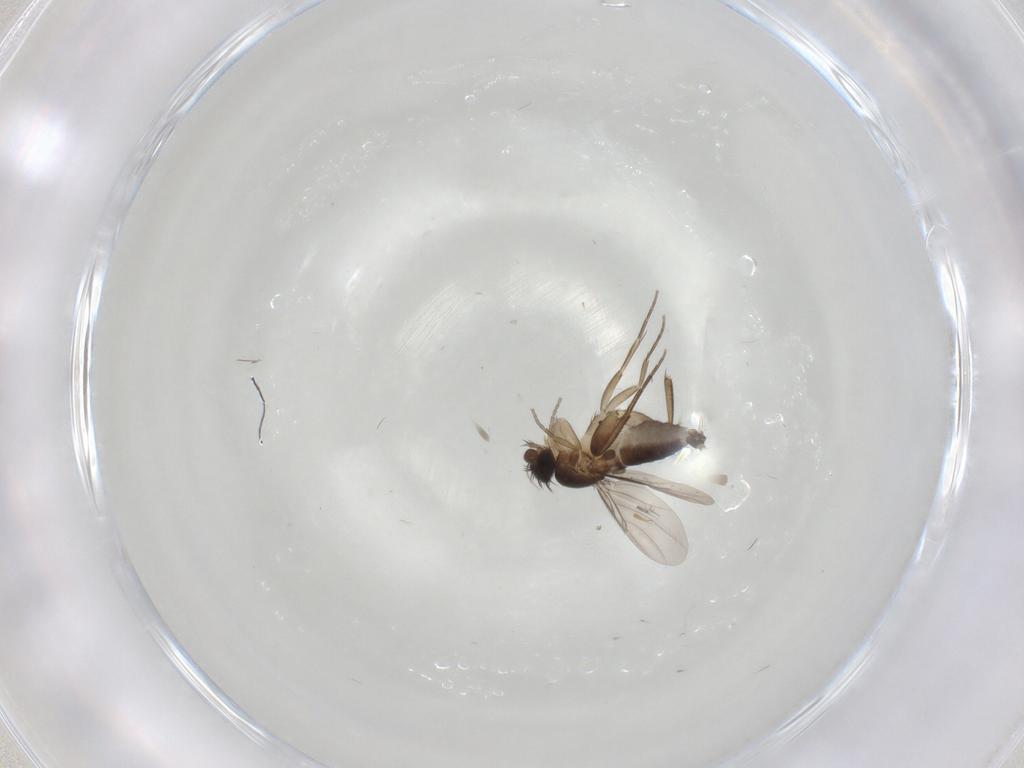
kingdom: Animalia
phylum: Arthropoda
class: Insecta
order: Diptera
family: Phoridae
